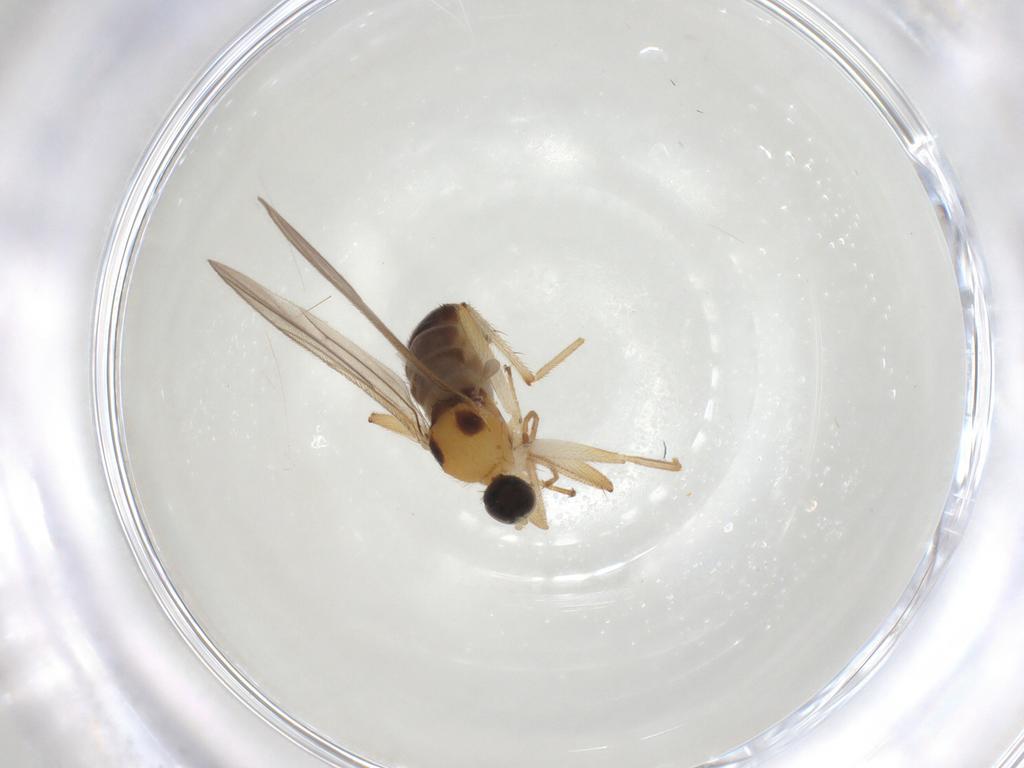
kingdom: Animalia
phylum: Arthropoda
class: Insecta
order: Diptera
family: Hybotidae
